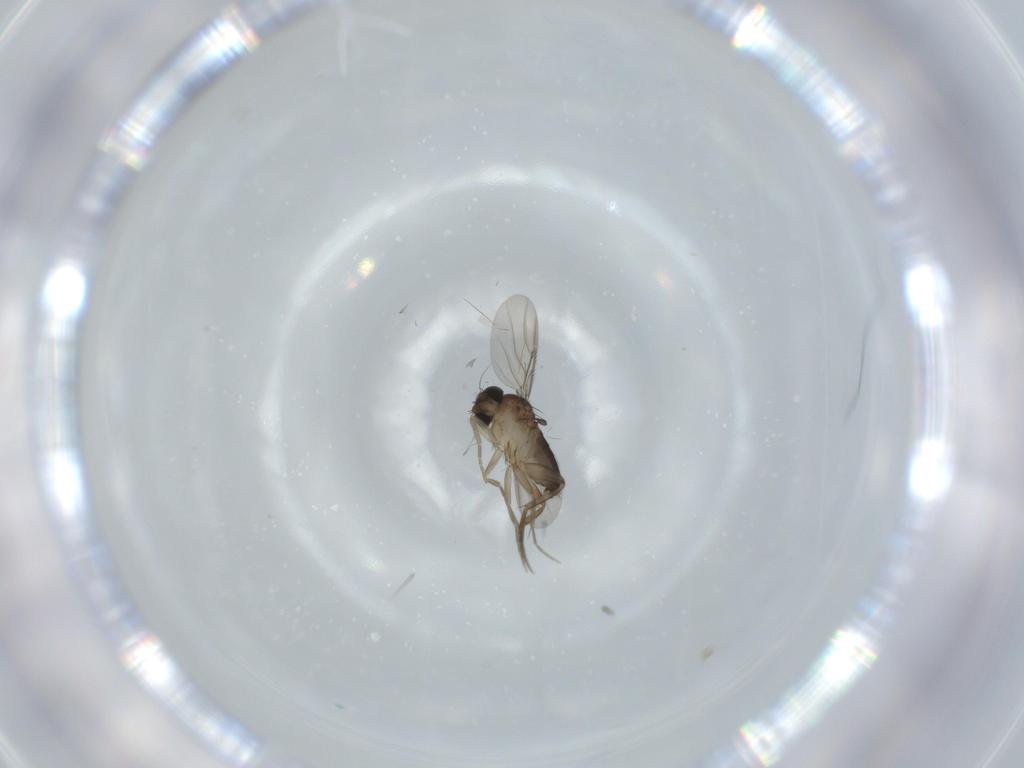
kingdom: Animalia
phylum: Arthropoda
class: Insecta
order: Diptera
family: Phoridae
